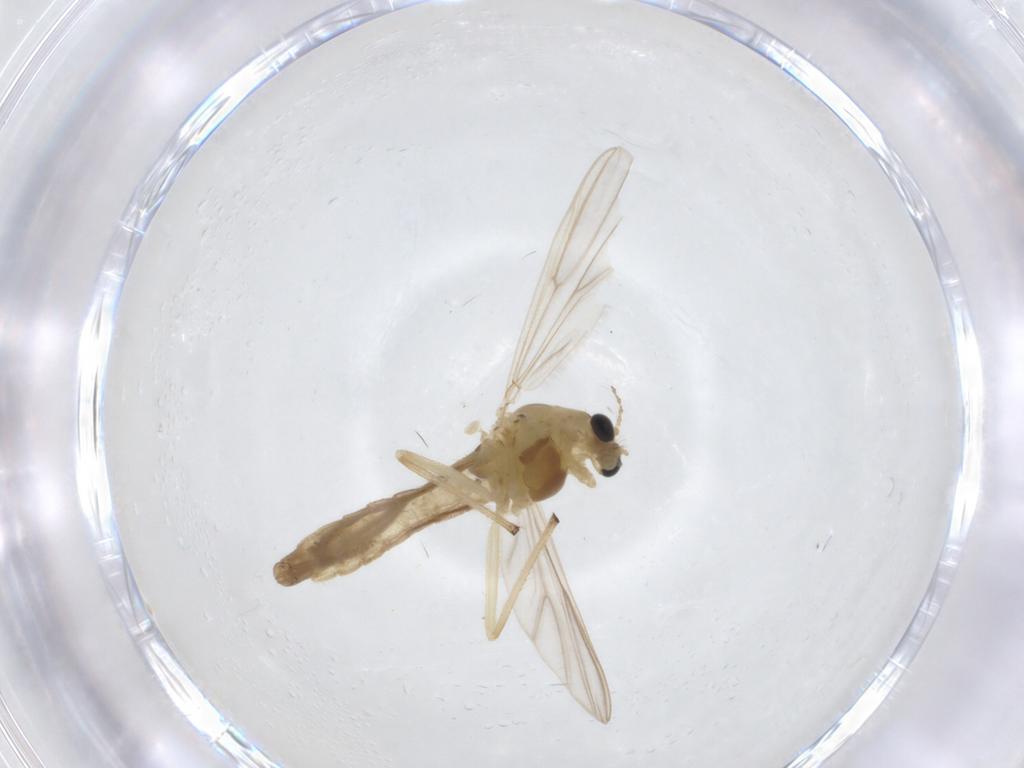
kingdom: Animalia
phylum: Arthropoda
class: Insecta
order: Diptera
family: Chironomidae
